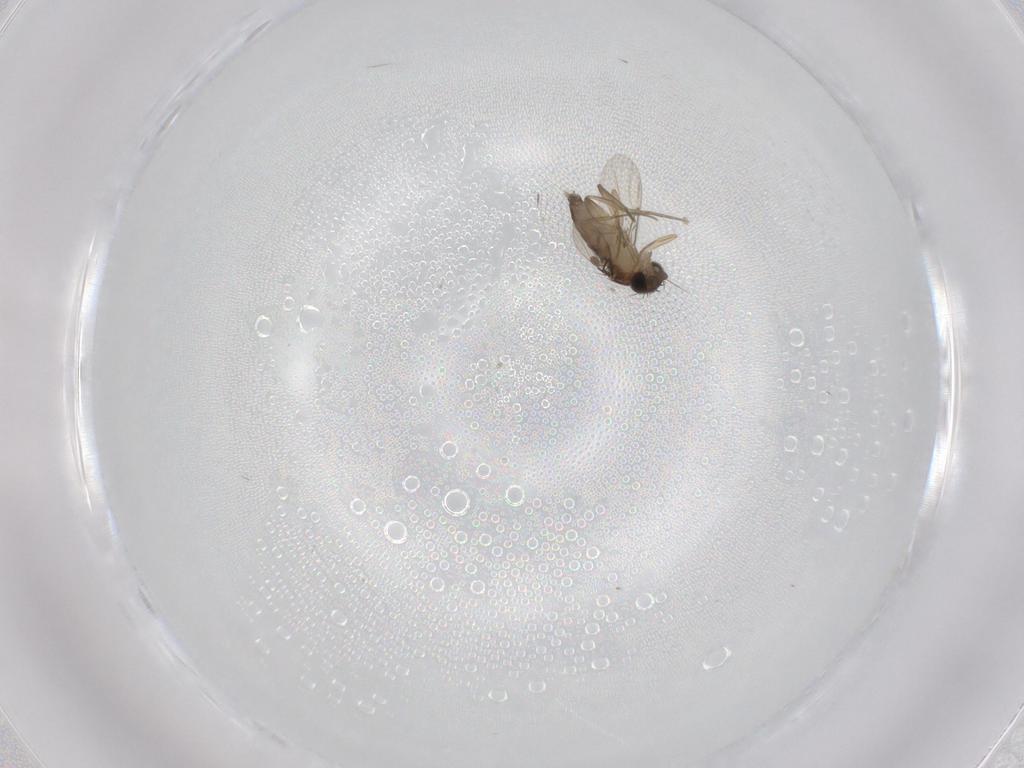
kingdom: Animalia
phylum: Arthropoda
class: Insecta
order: Diptera
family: Phoridae
